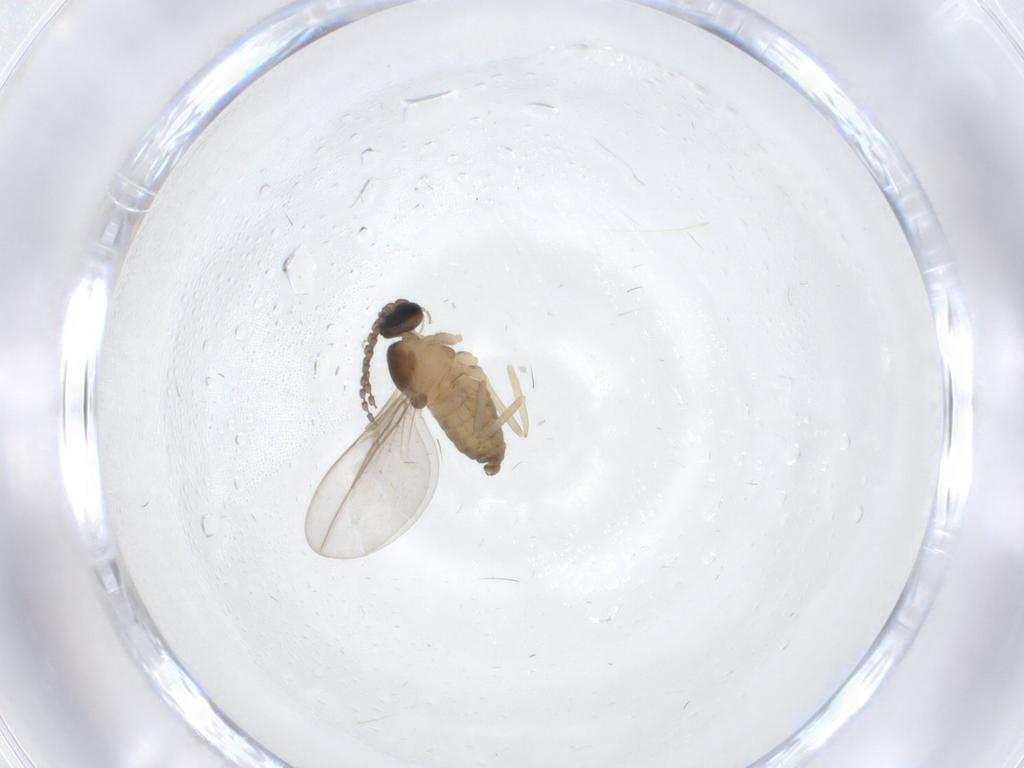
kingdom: Animalia
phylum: Arthropoda
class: Insecta
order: Diptera
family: Cecidomyiidae
